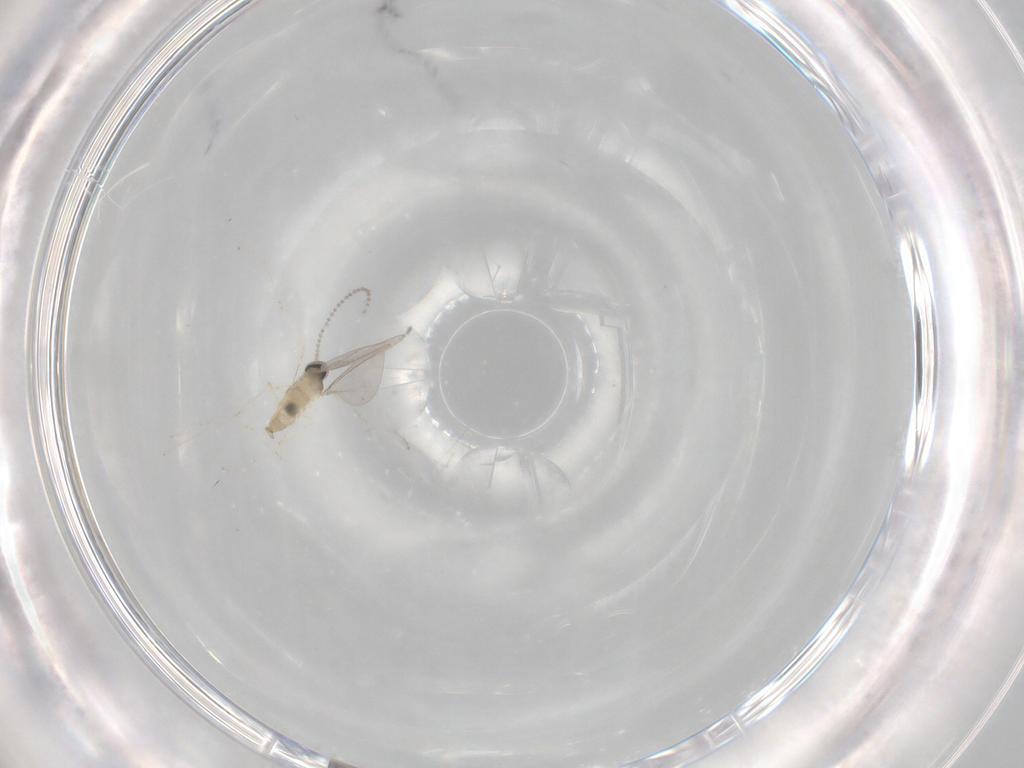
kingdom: Animalia
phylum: Arthropoda
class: Insecta
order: Diptera
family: Cecidomyiidae
